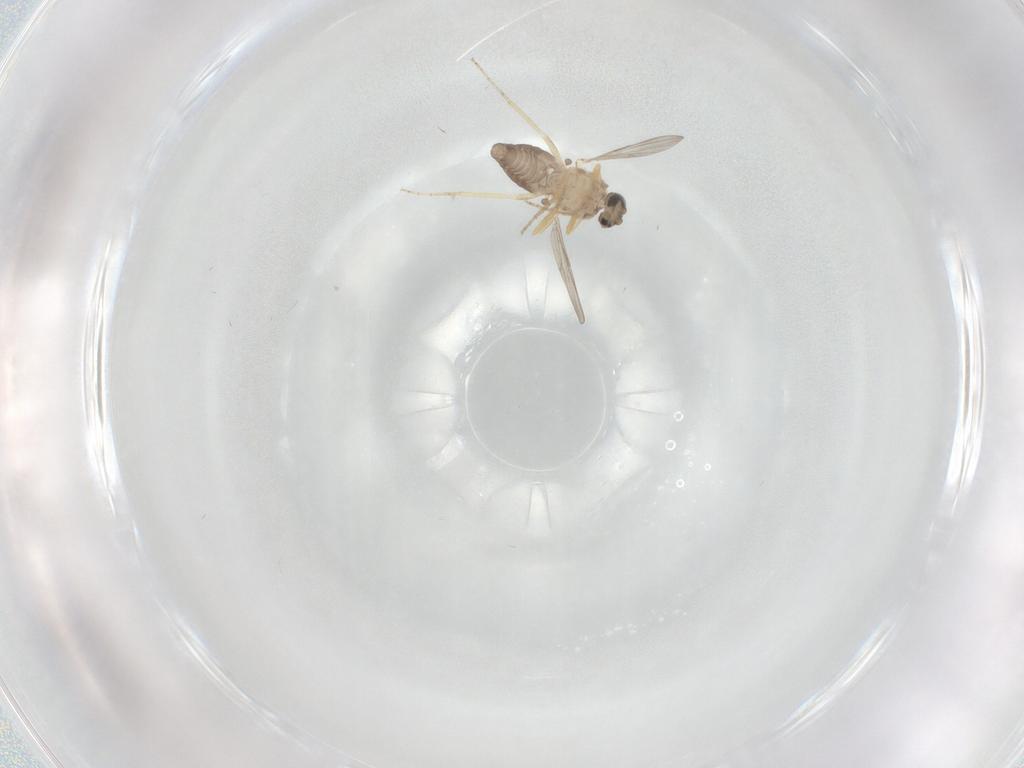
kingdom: Animalia
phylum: Arthropoda
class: Insecta
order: Diptera
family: Ceratopogonidae
